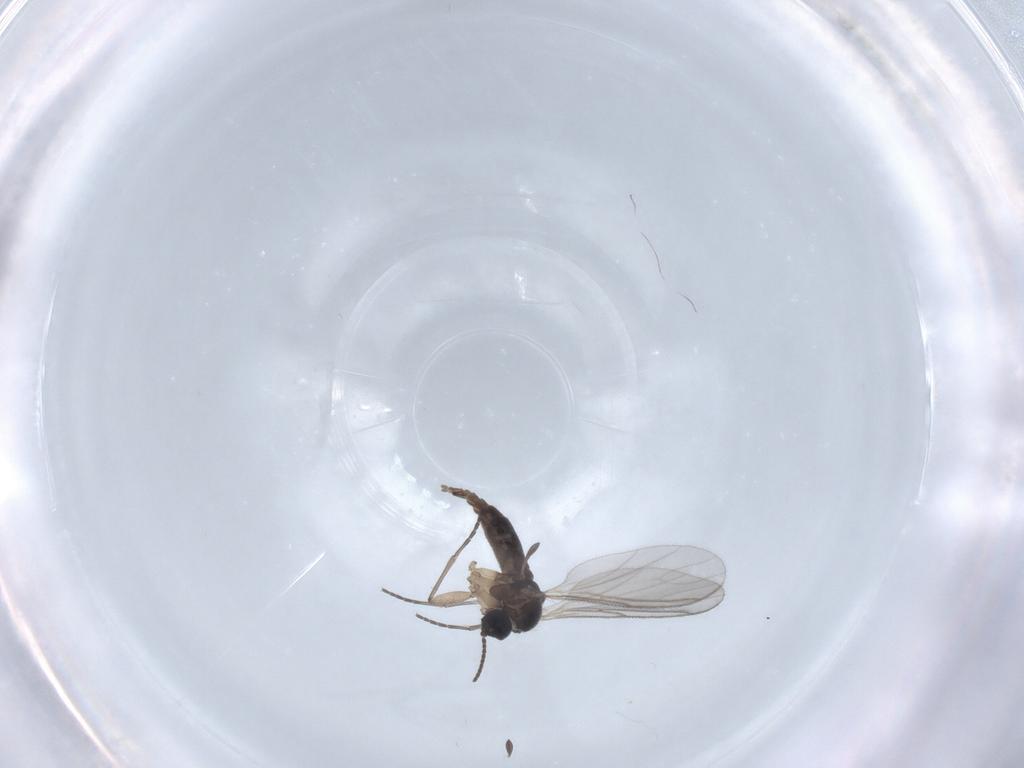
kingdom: Animalia
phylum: Arthropoda
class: Insecta
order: Diptera
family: Sciaridae
